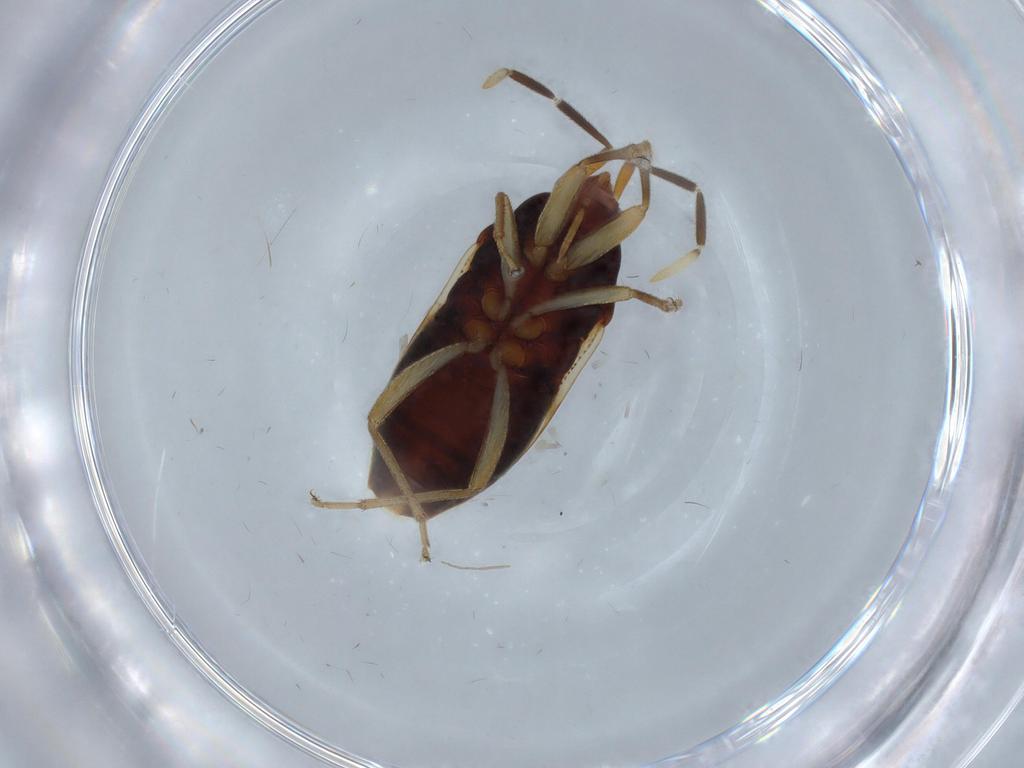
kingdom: Animalia
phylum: Arthropoda
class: Insecta
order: Hemiptera
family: Rhyparochromidae
